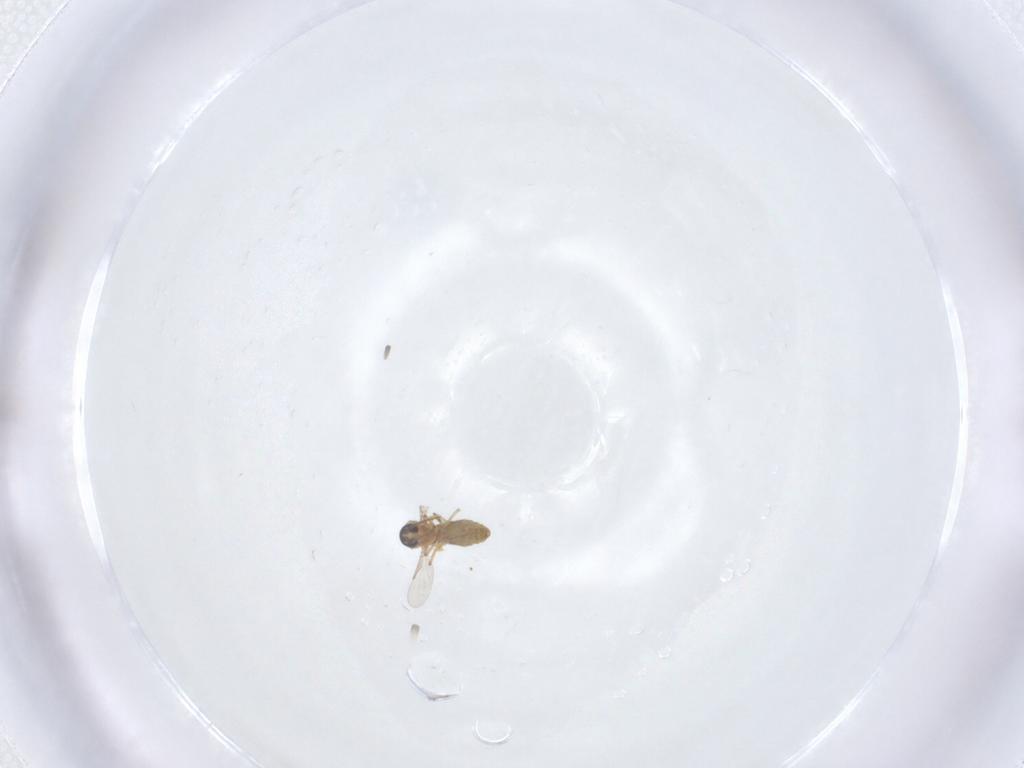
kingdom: Animalia
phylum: Arthropoda
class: Insecta
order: Diptera
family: Ceratopogonidae
